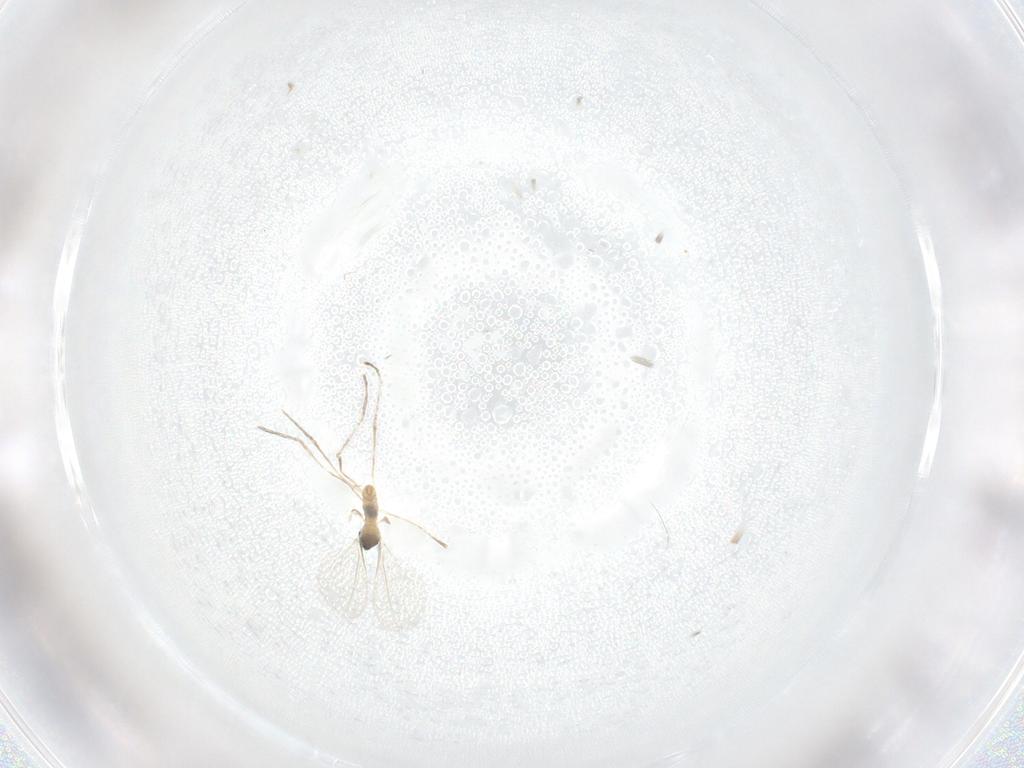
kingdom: Animalia
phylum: Arthropoda
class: Insecta
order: Diptera
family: Cecidomyiidae
